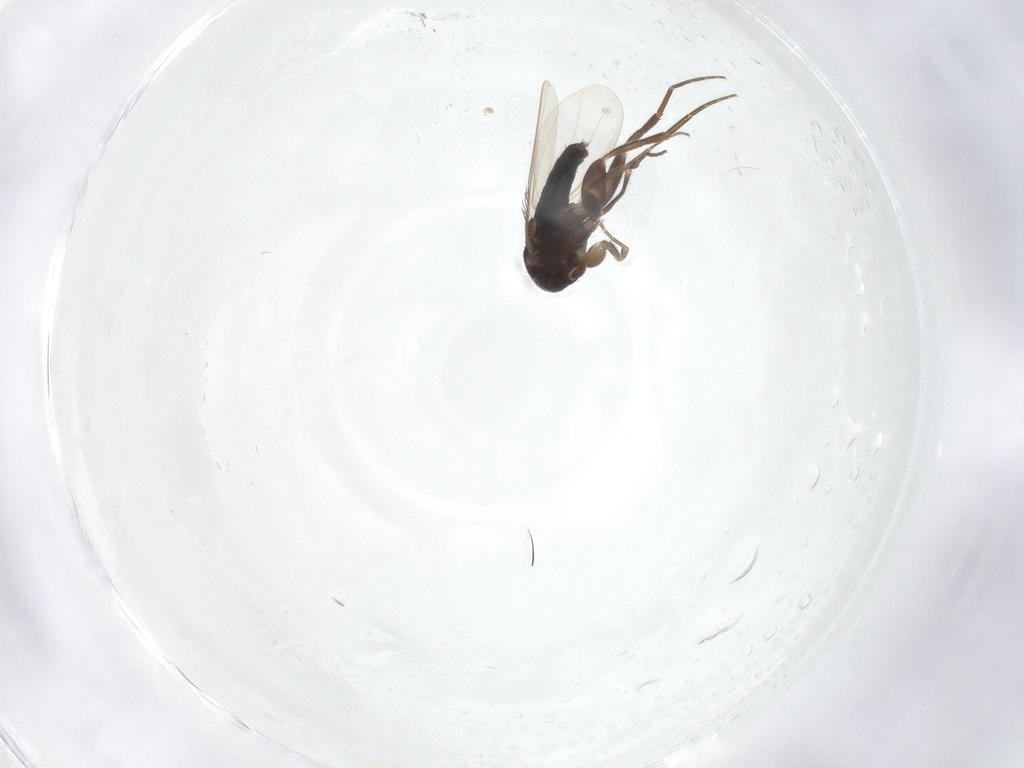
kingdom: Animalia
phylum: Arthropoda
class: Insecta
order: Diptera
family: Phoridae
